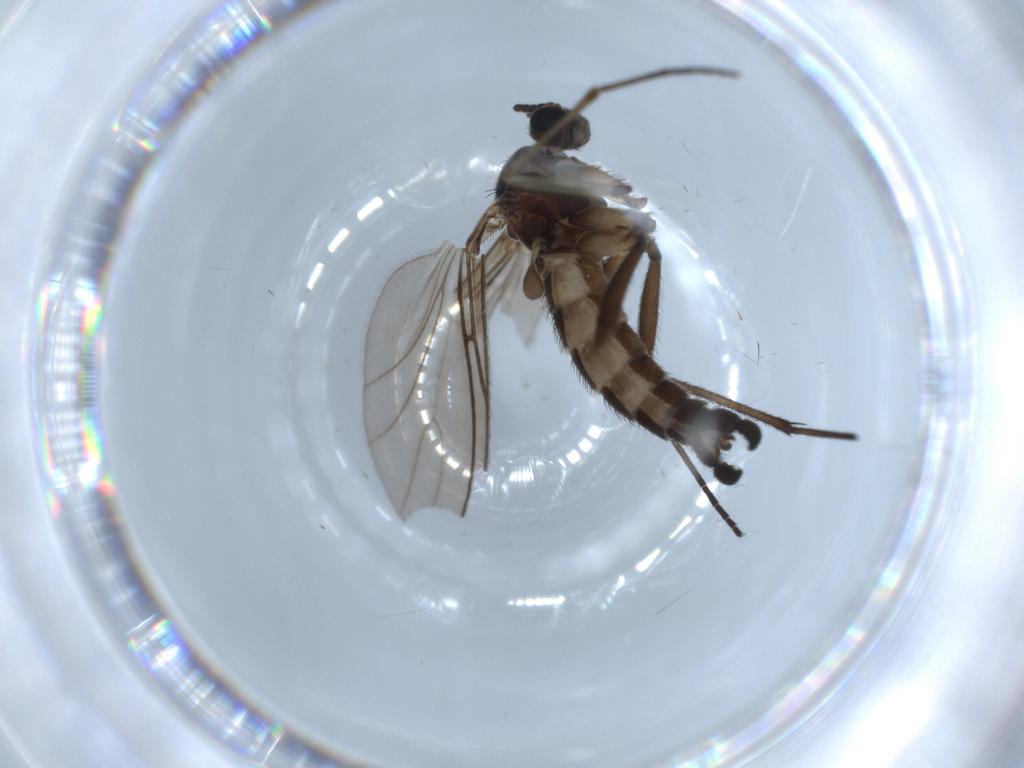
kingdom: Animalia
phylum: Arthropoda
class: Insecta
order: Diptera
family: Sciaridae
